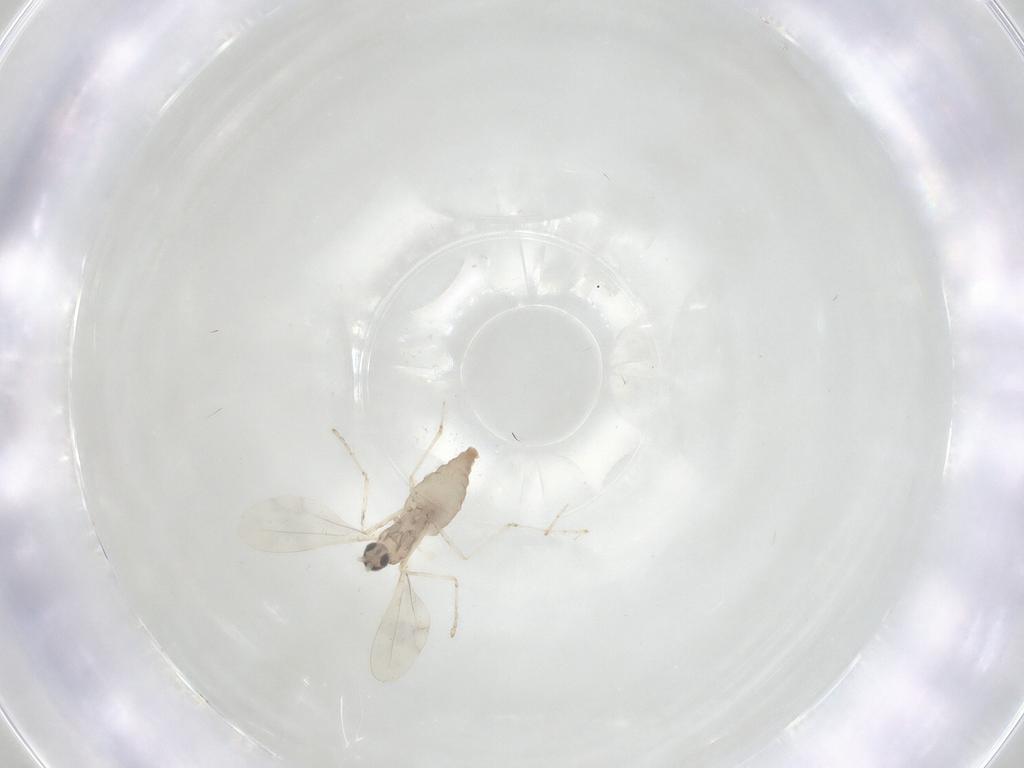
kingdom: Animalia
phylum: Arthropoda
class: Insecta
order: Diptera
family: Cecidomyiidae
